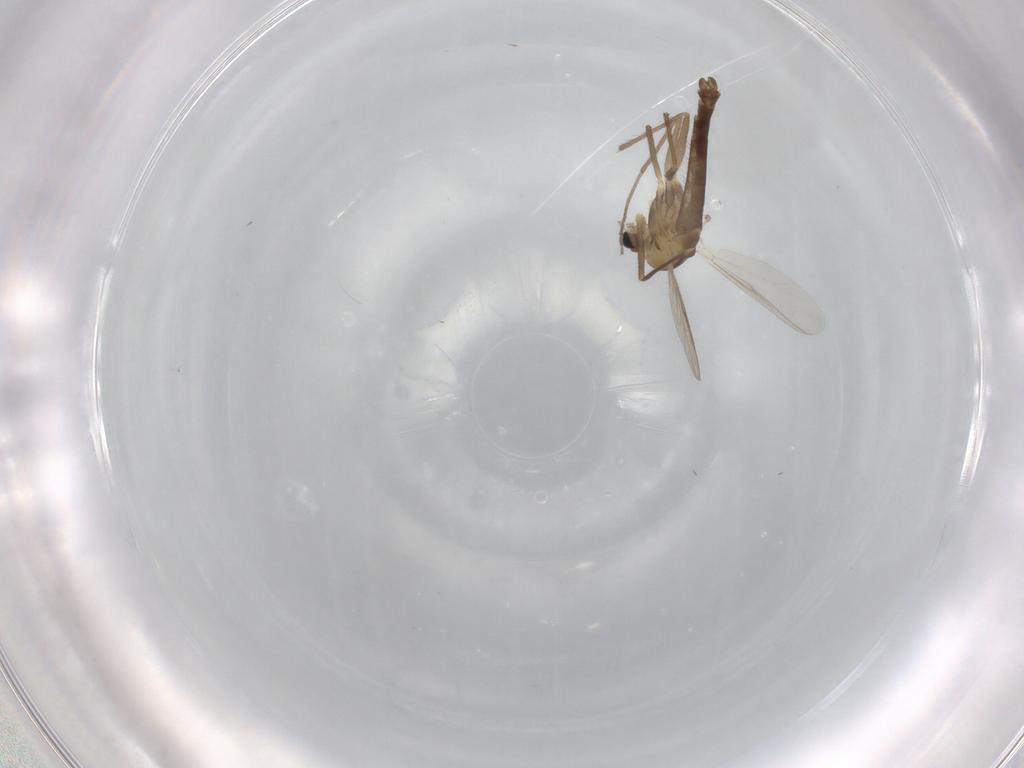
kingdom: Animalia
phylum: Arthropoda
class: Insecta
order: Diptera
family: Chironomidae
